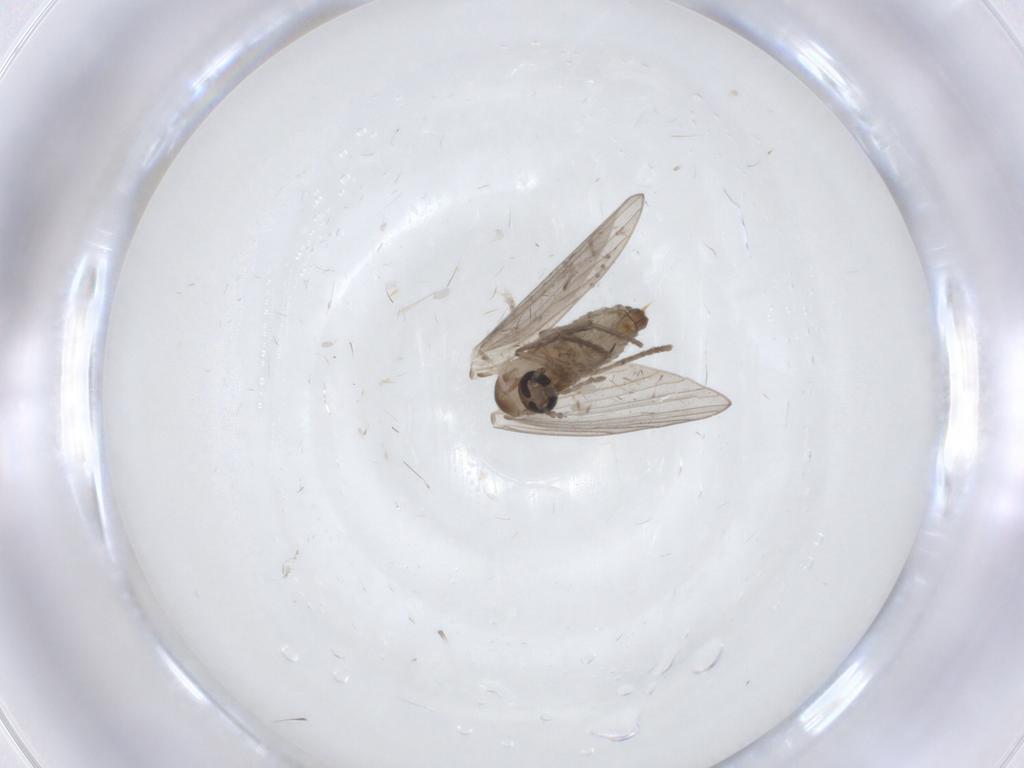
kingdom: Animalia
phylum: Arthropoda
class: Insecta
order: Diptera
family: Psychodidae
